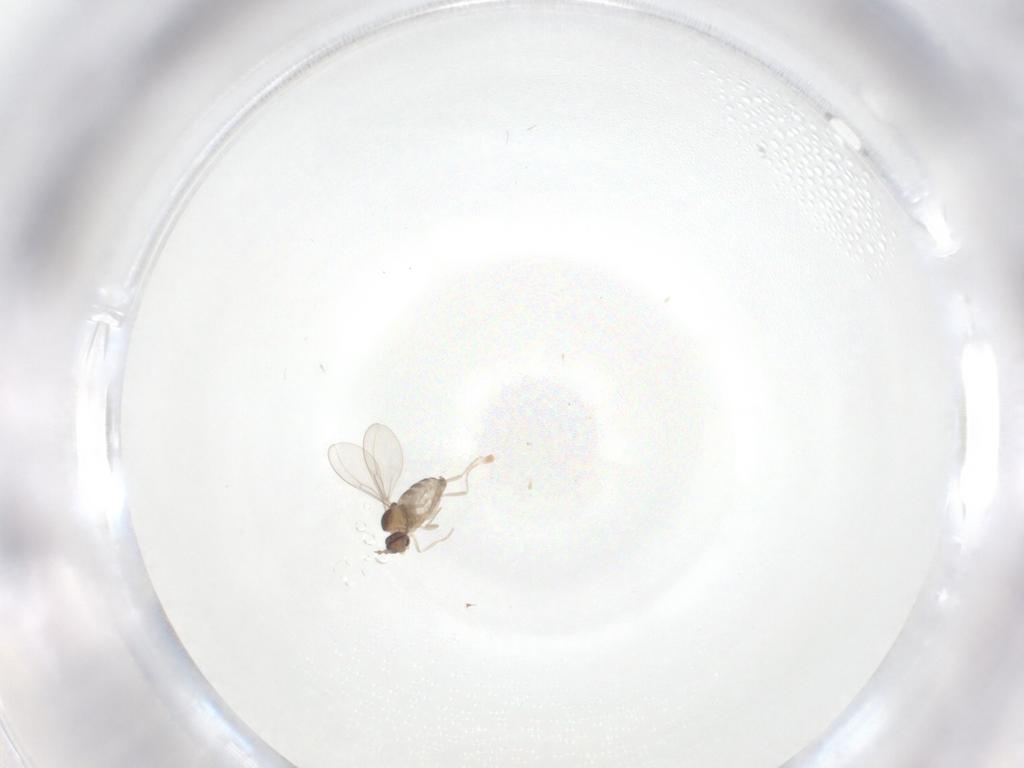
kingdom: Animalia
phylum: Arthropoda
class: Insecta
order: Diptera
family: Cecidomyiidae
